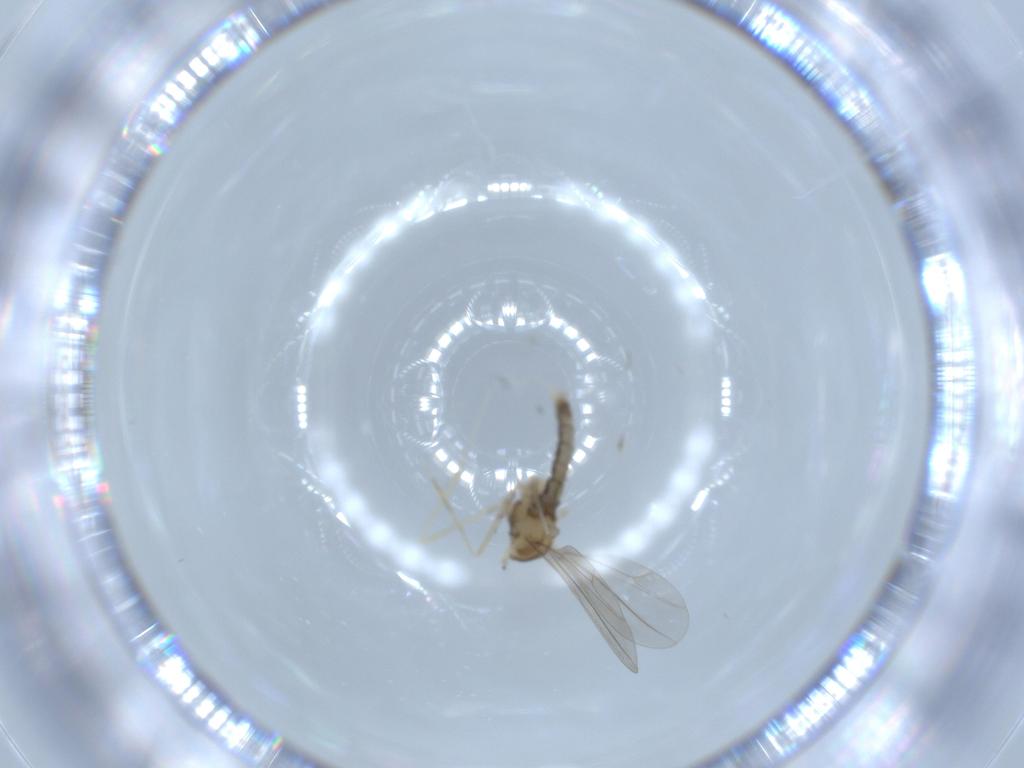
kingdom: Animalia
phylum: Arthropoda
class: Insecta
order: Diptera
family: Cecidomyiidae
